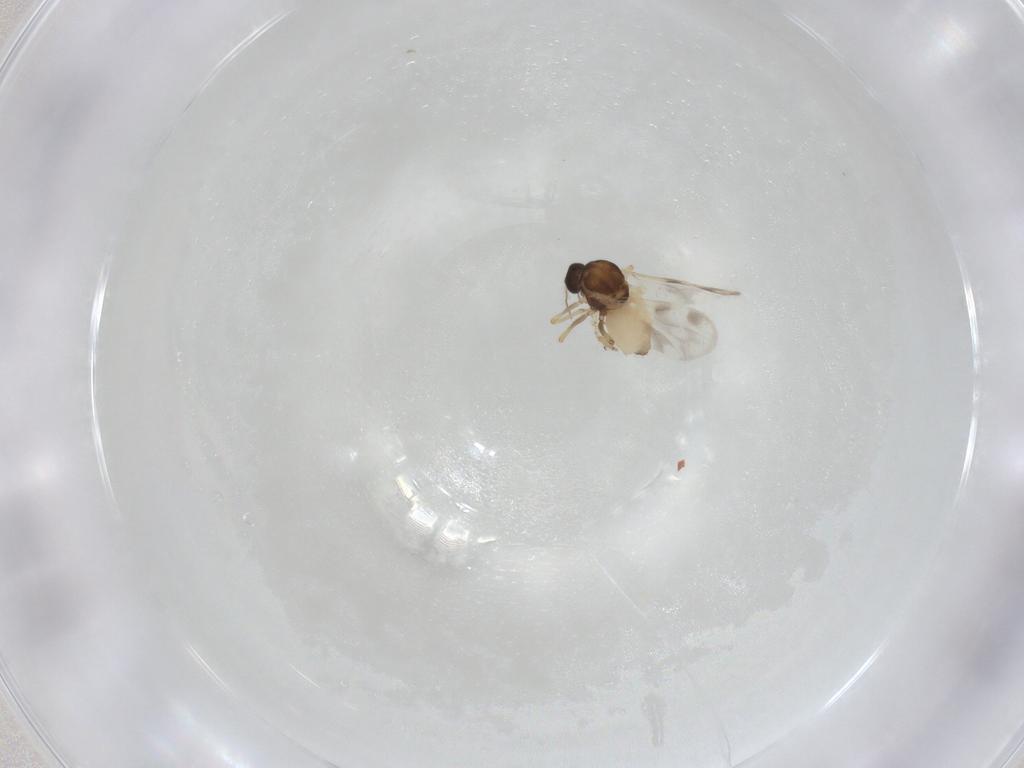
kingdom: Animalia
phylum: Arthropoda
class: Insecta
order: Diptera
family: Ceratopogonidae
